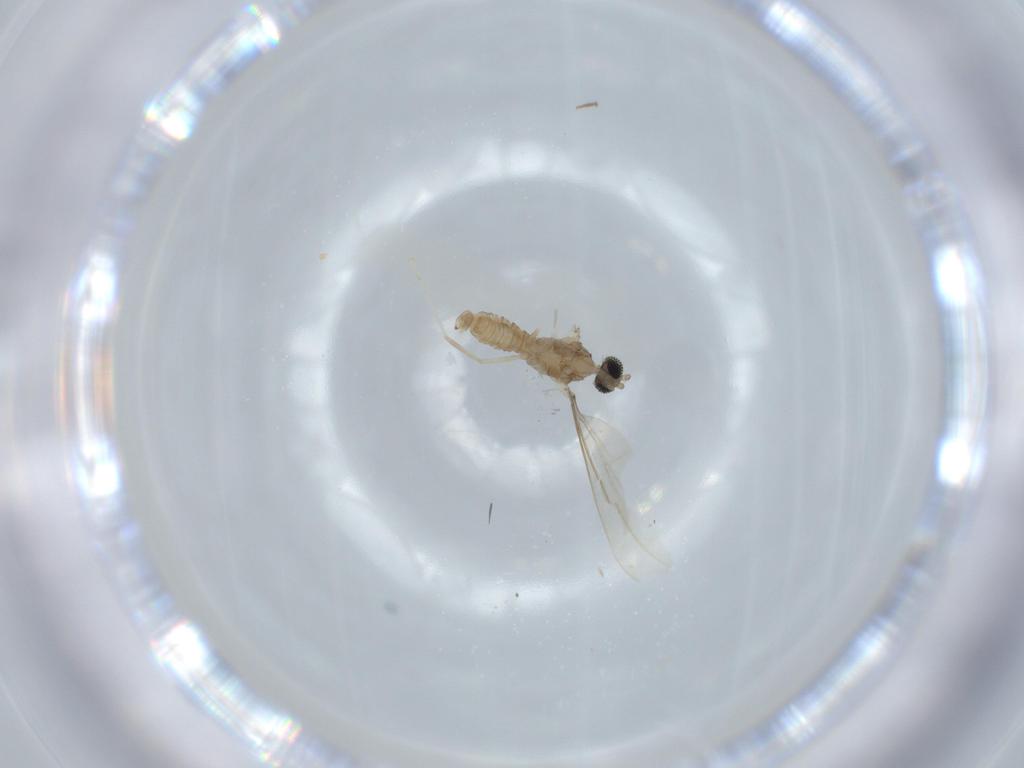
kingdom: Animalia
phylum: Arthropoda
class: Insecta
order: Diptera
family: Cecidomyiidae
